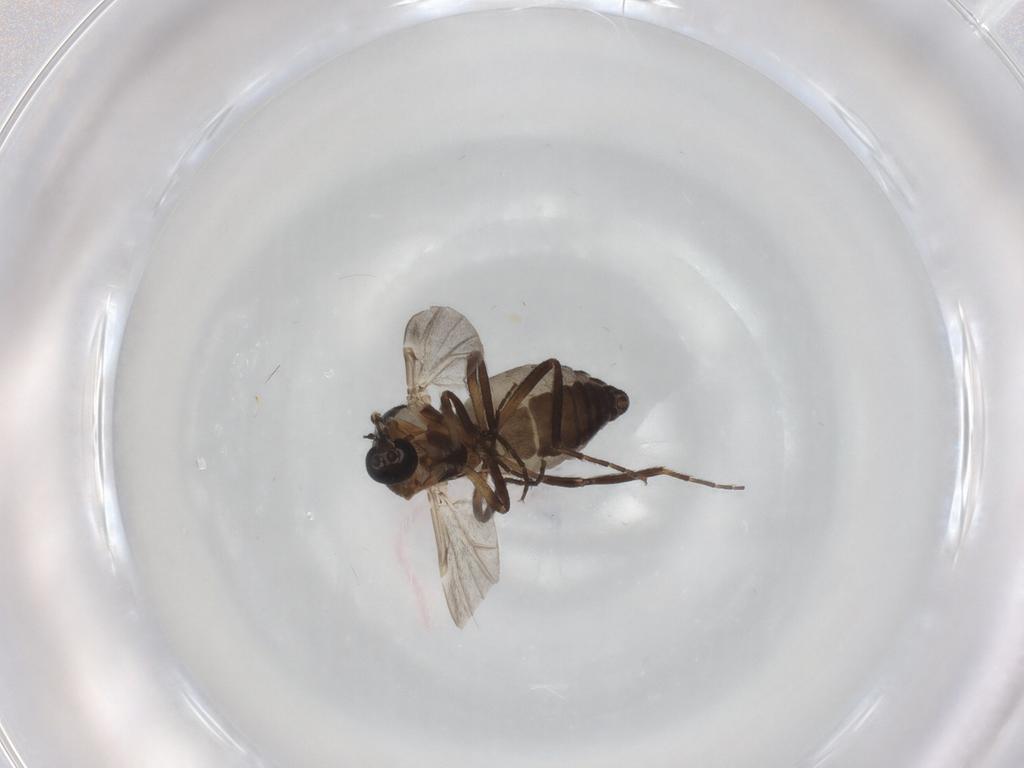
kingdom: Animalia
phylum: Arthropoda
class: Insecta
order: Diptera
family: Ceratopogonidae
